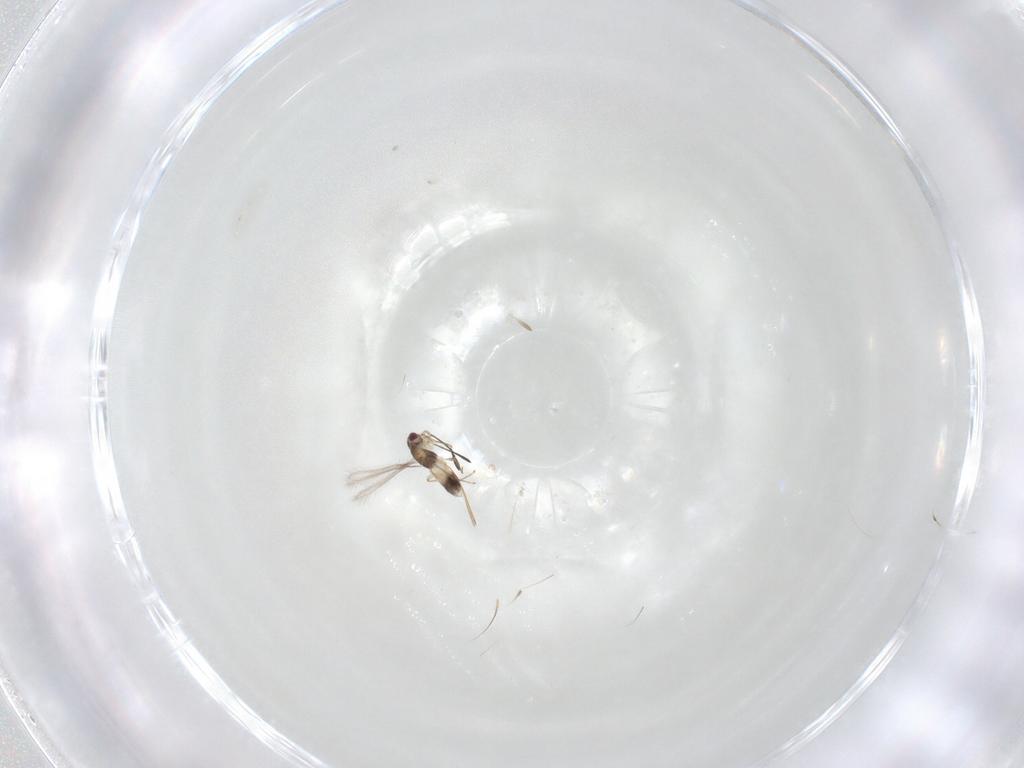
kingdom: Animalia
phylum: Arthropoda
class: Insecta
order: Hymenoptera
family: Mymaridae
